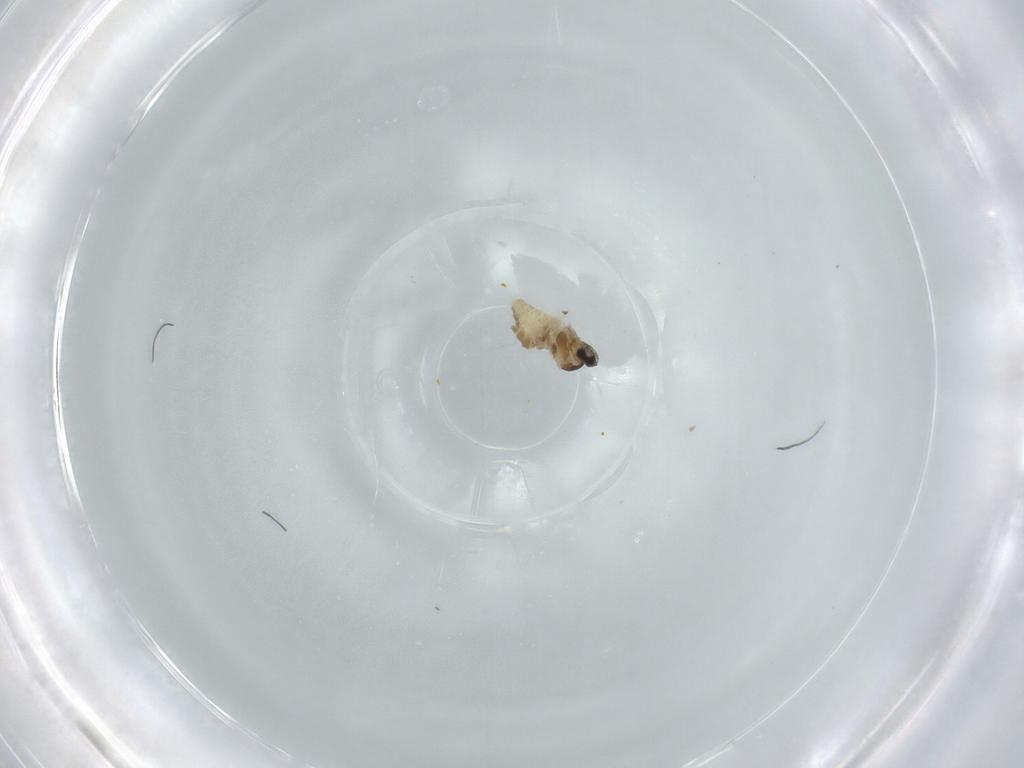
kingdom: Animalia
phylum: Arthropoda
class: Insecta
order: Diptera
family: Cecidomyiidae
